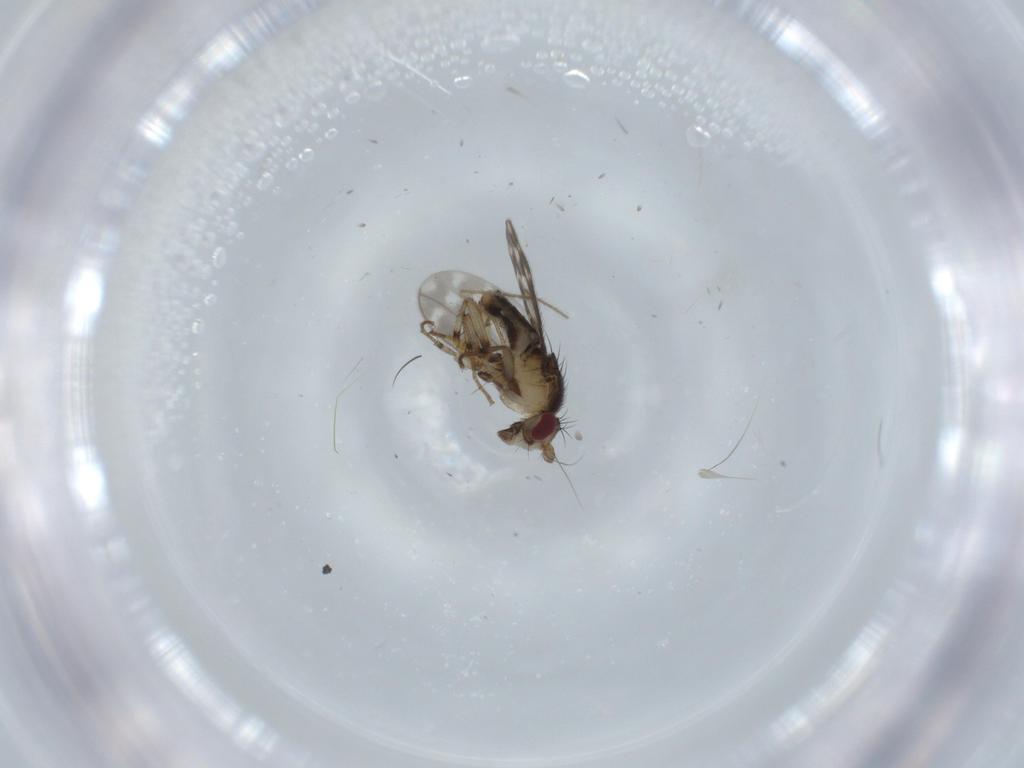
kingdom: Animalia
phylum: Arthropoda
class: Insecta
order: Diptera
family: Sphaeroceridae
